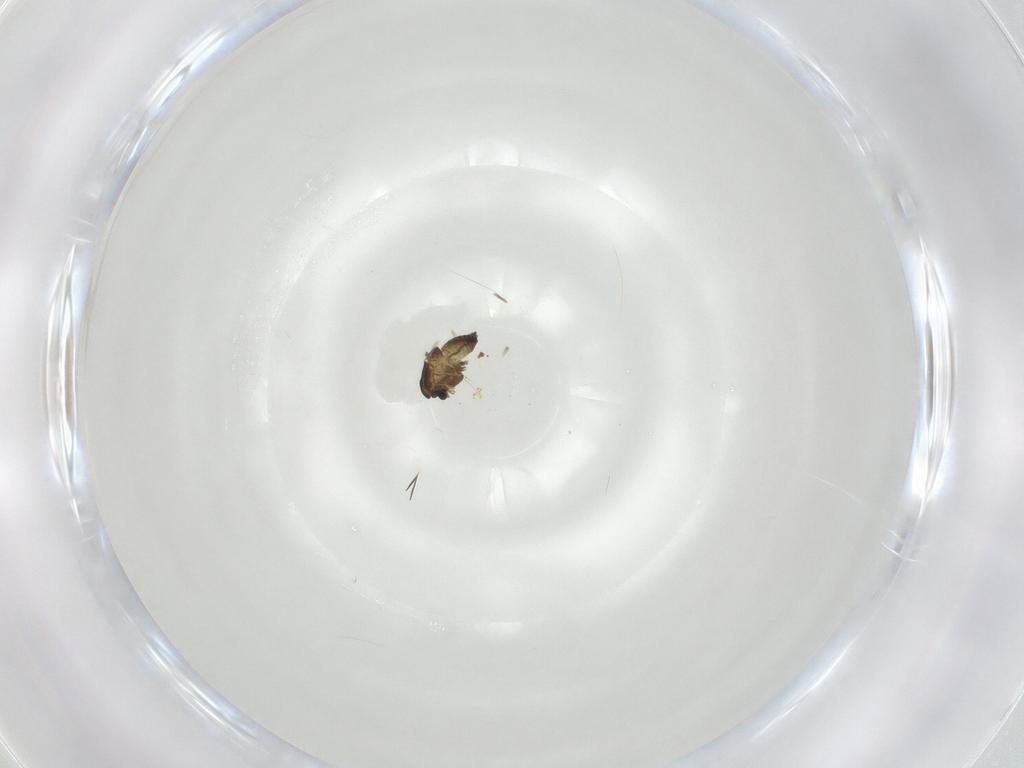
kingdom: Animalia
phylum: Arthropoda
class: Insecta
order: Diptera
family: Chironomidae
